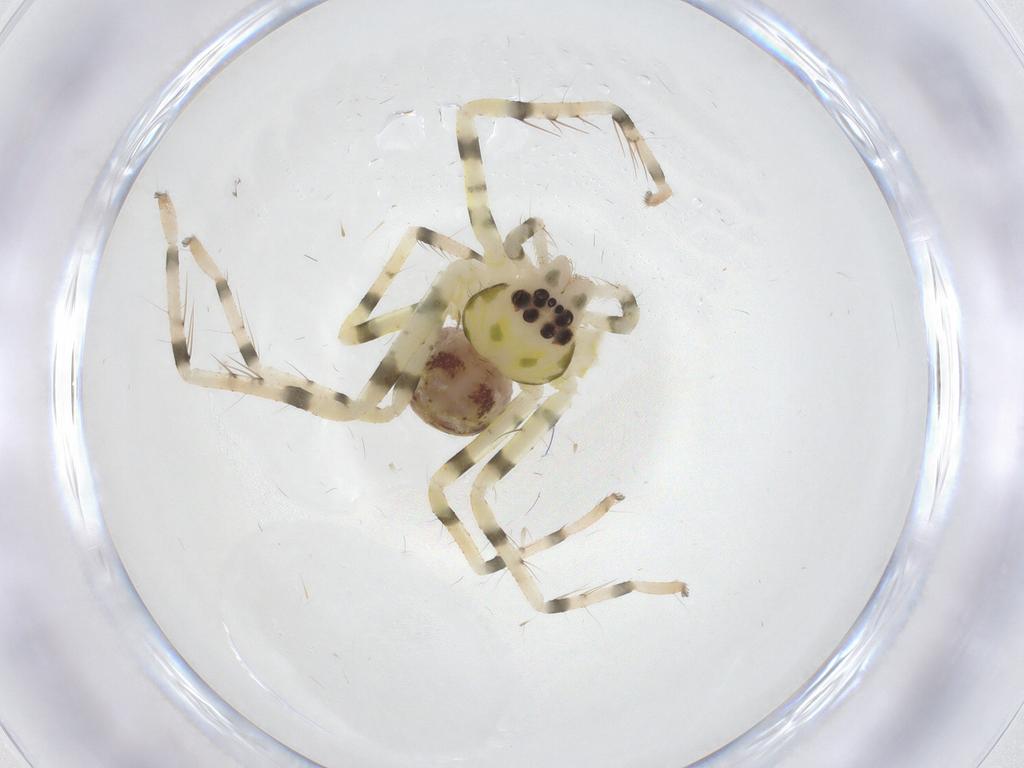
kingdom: Animalia
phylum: Arthropoda
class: Arachnida
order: Araneae
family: Sparassidae
